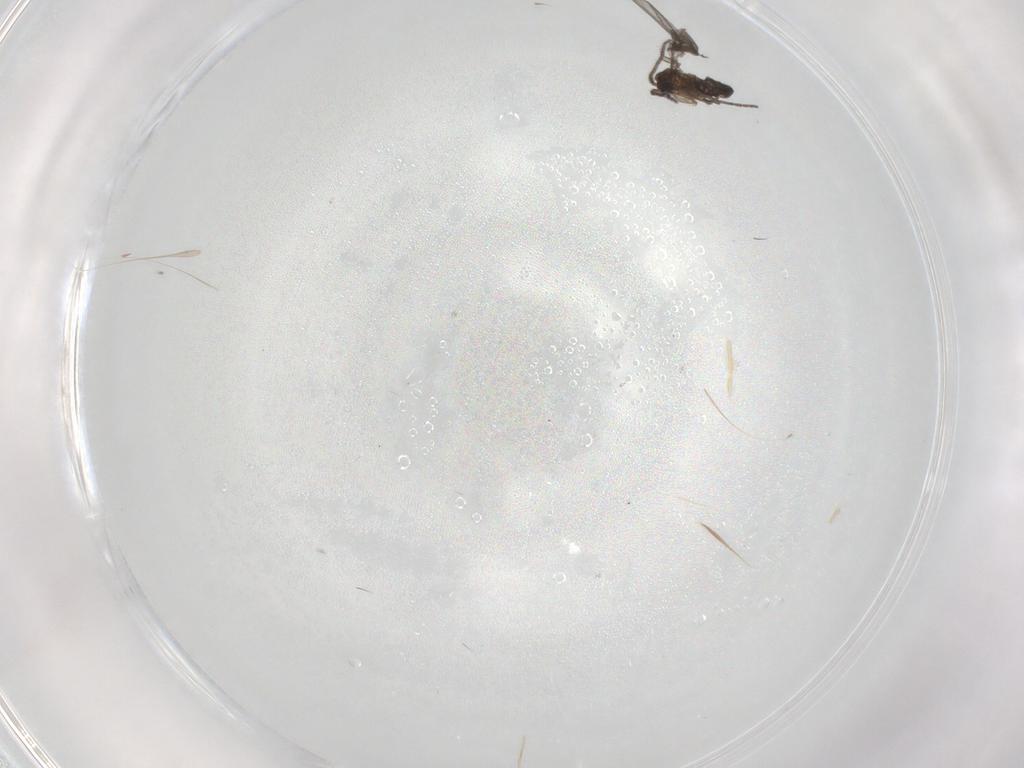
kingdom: Animalia
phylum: Arthropoda
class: Insecta
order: Diptera
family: Sciaridae
